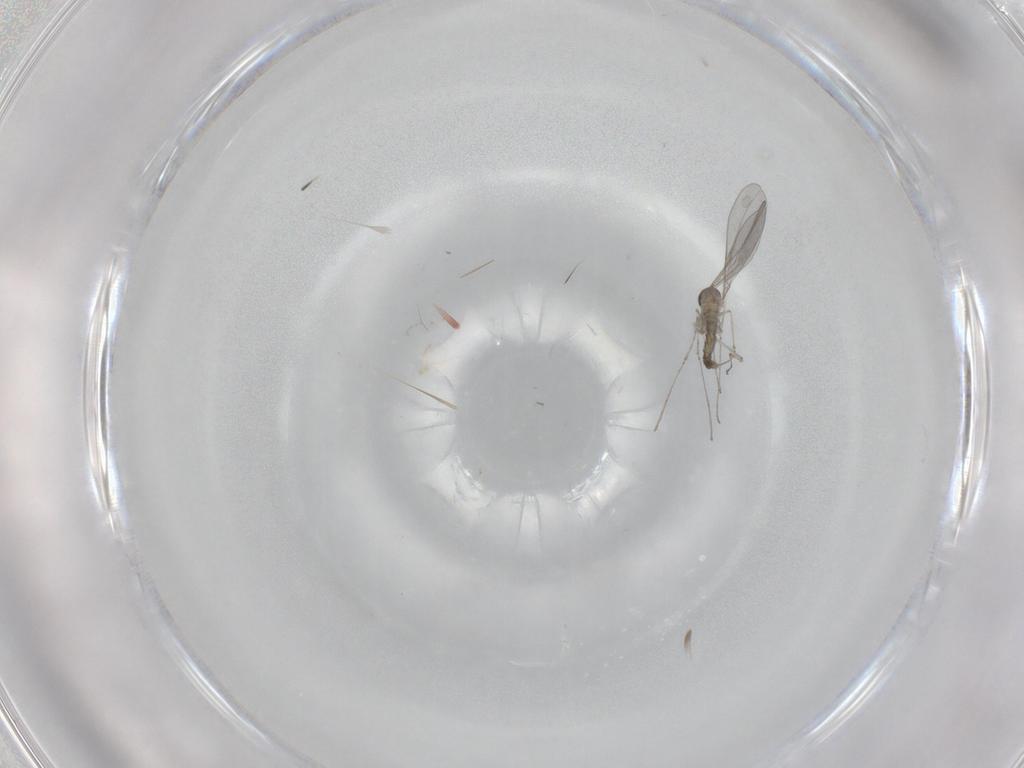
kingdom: Animalia
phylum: Arthropoda
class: Insecta
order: Diptera
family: Cecidomyiidae
